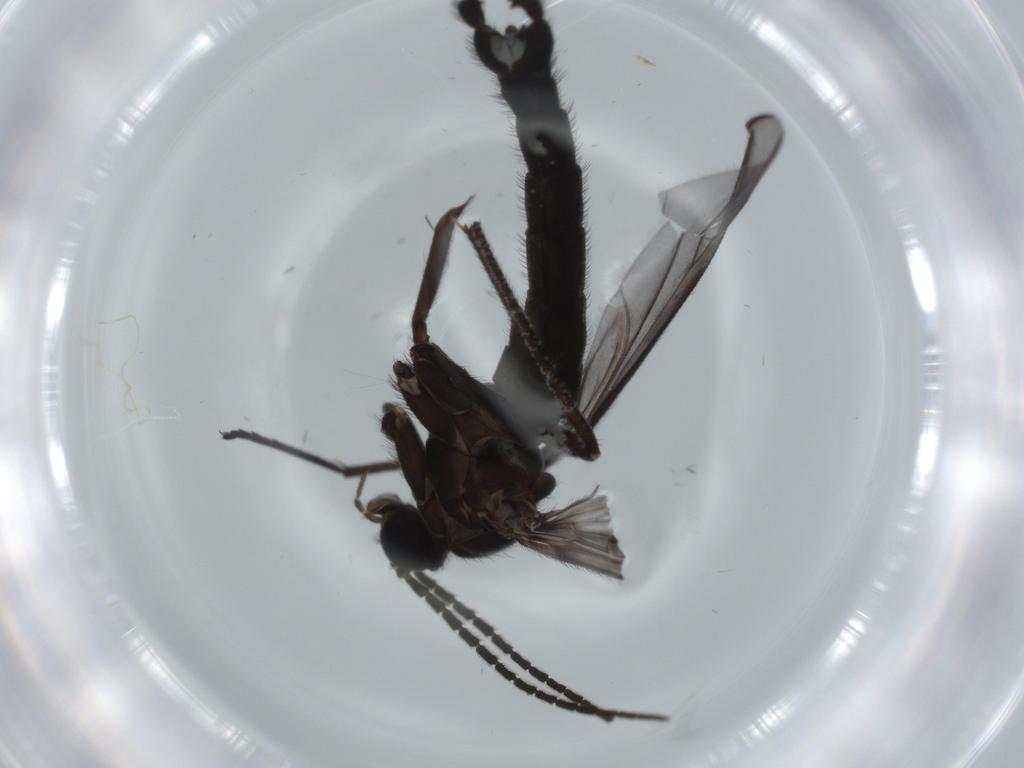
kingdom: Animalia
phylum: Arthropoda
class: Insecta
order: Diptera
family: Sciaridae
